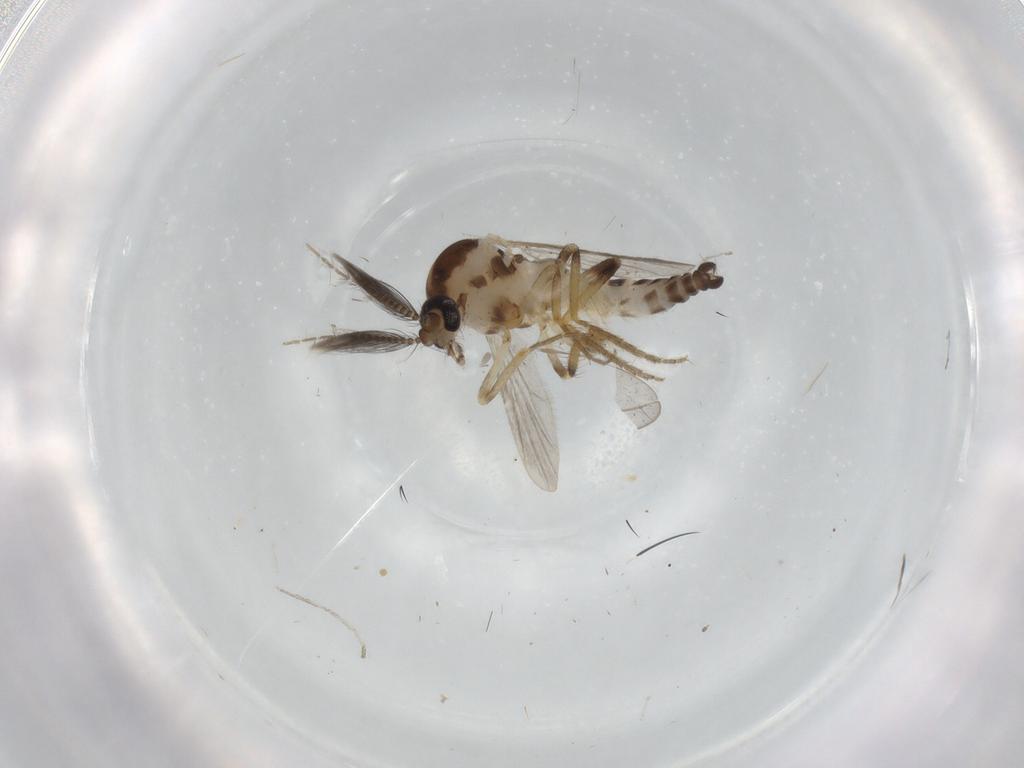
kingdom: Animalia
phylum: Arthropoda
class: Insecta
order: Diptera
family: Ceratopogonidae
